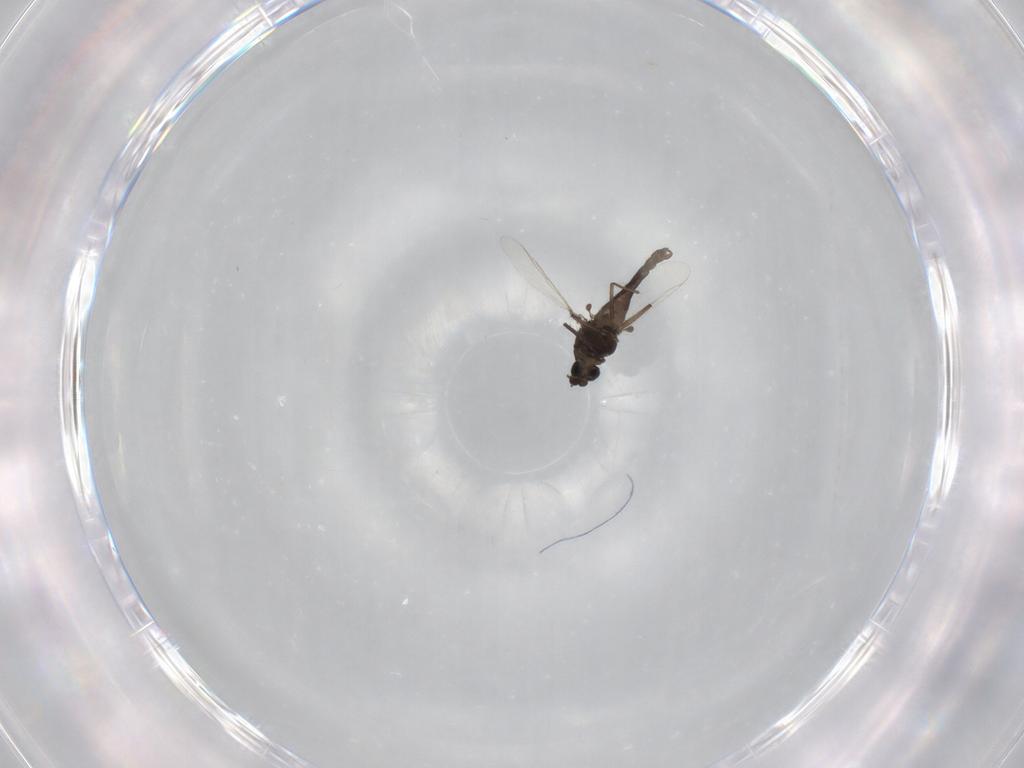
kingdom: Animalia
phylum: Arthropoda
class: Insecta
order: Diptera
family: Chironomidae
